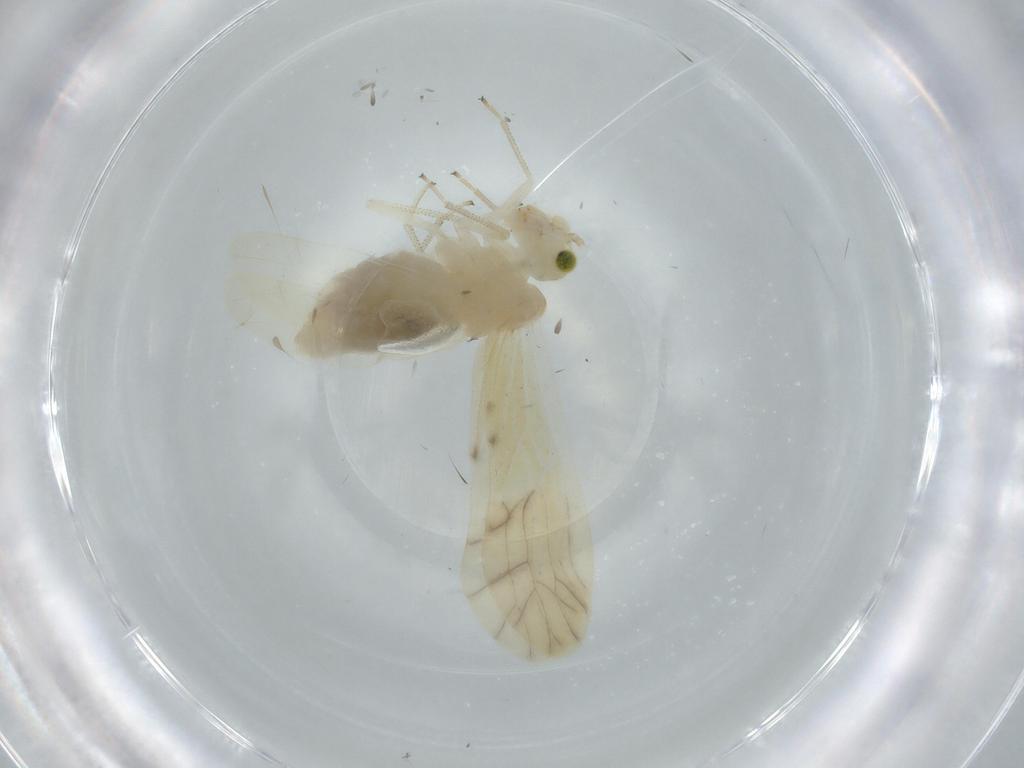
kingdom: Animalia
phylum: Arthropoda
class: Insecta
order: Psocodea
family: Caeciliusidae
